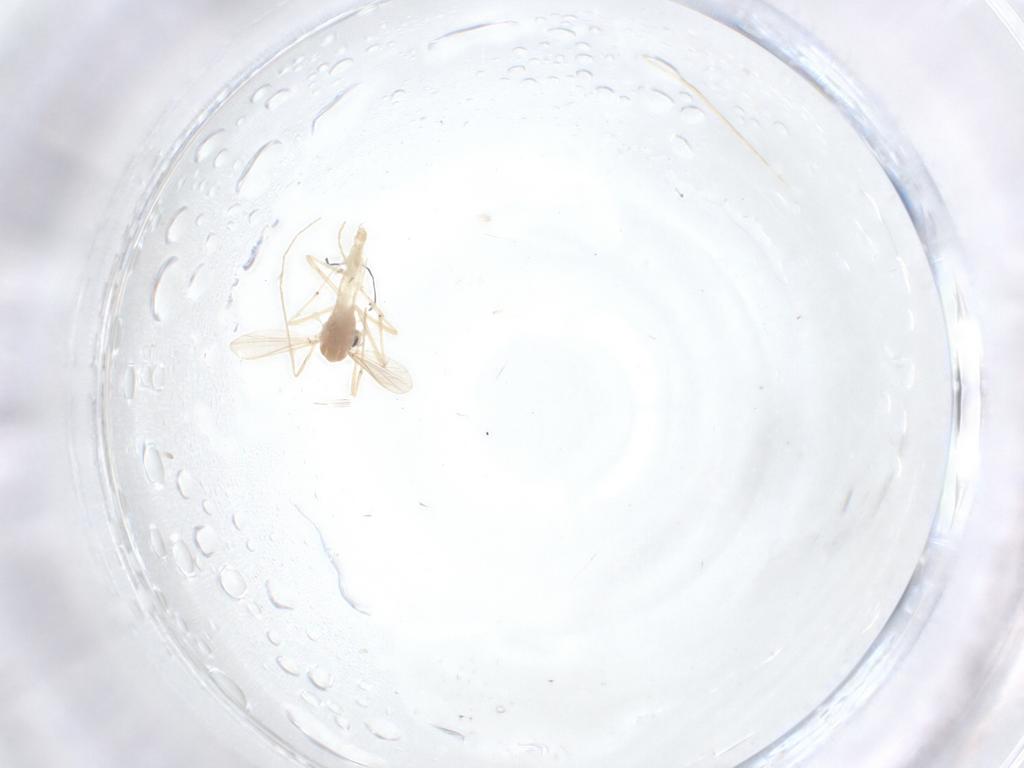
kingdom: Animalia
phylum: Arthropoda
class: Insecta
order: Diptera
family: Chironomidae
